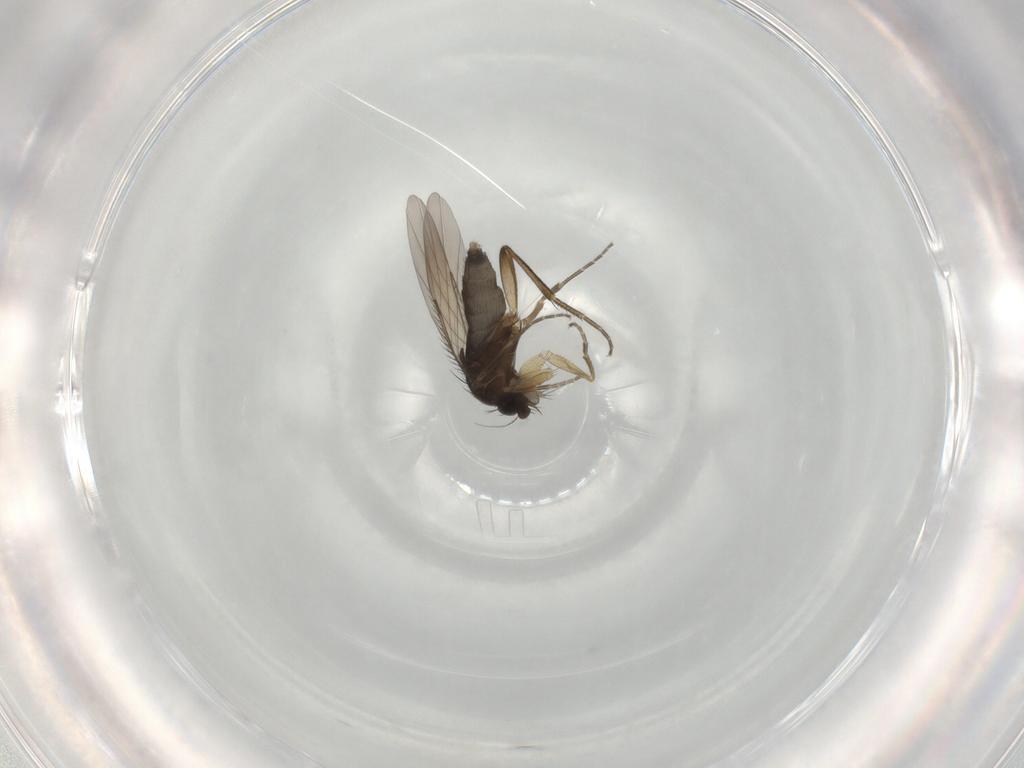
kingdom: Animalia
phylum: Arthropoda
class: Insecta
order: Diptera
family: Phoridae
